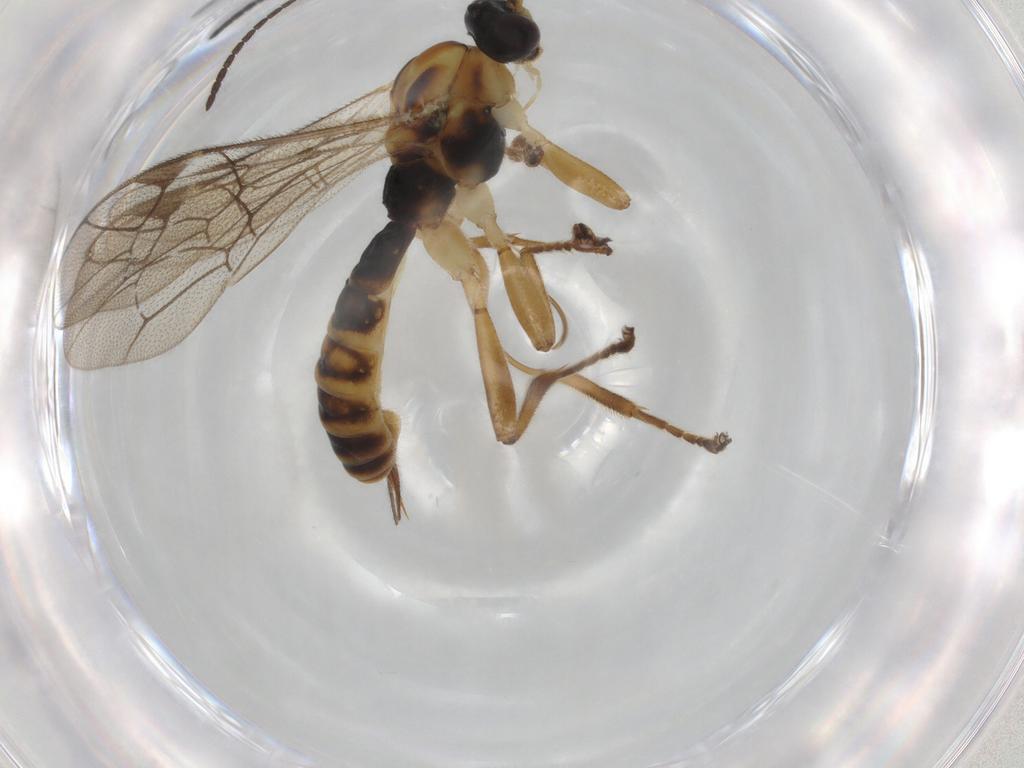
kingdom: Animalia
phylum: Arthropoda
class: Insecta
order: Hymenoptera
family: Ichneumonidae
